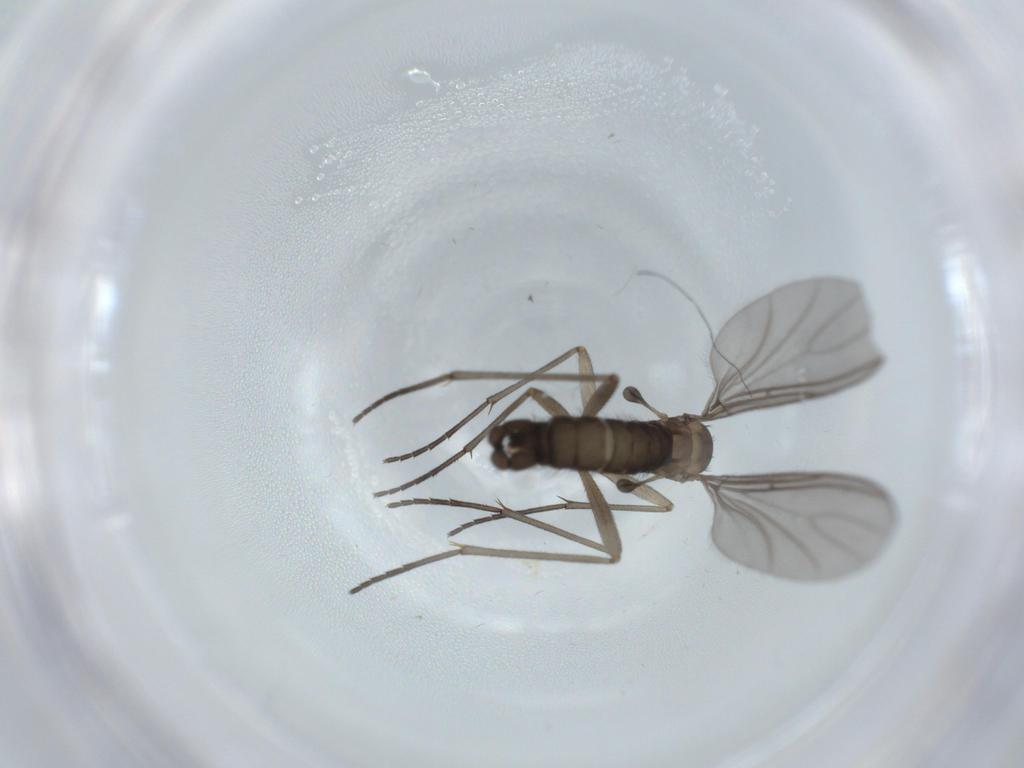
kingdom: Animalia
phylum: Arthropoda
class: Insecta
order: Diptera
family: Sciaridae
